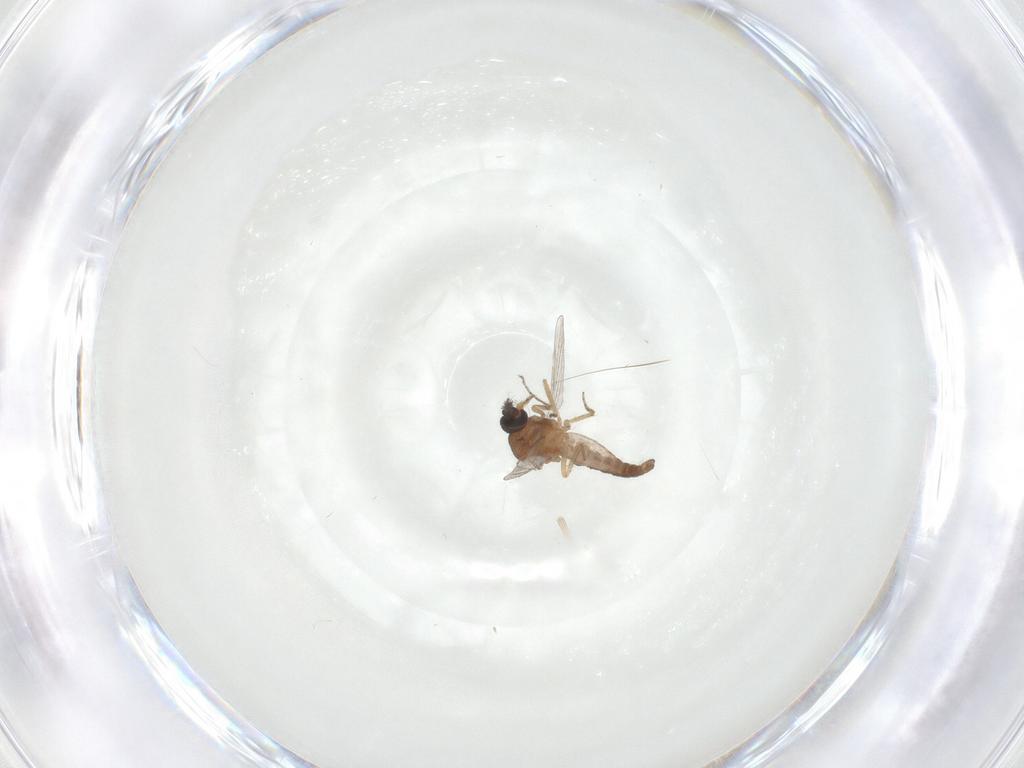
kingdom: Animalia
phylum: Arthropoda
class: Insecta
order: Diptera
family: Ceratopogonidae
